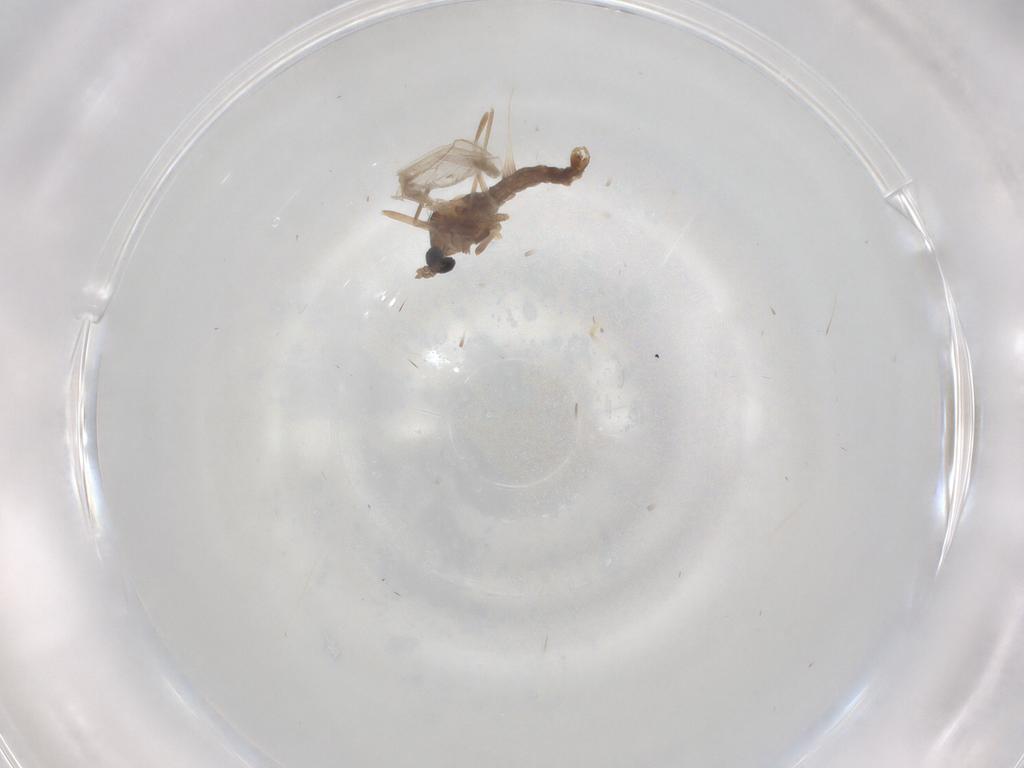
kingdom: Animalia
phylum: Arthropoda
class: Insecta
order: Diptera
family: Cecidomyiidae
